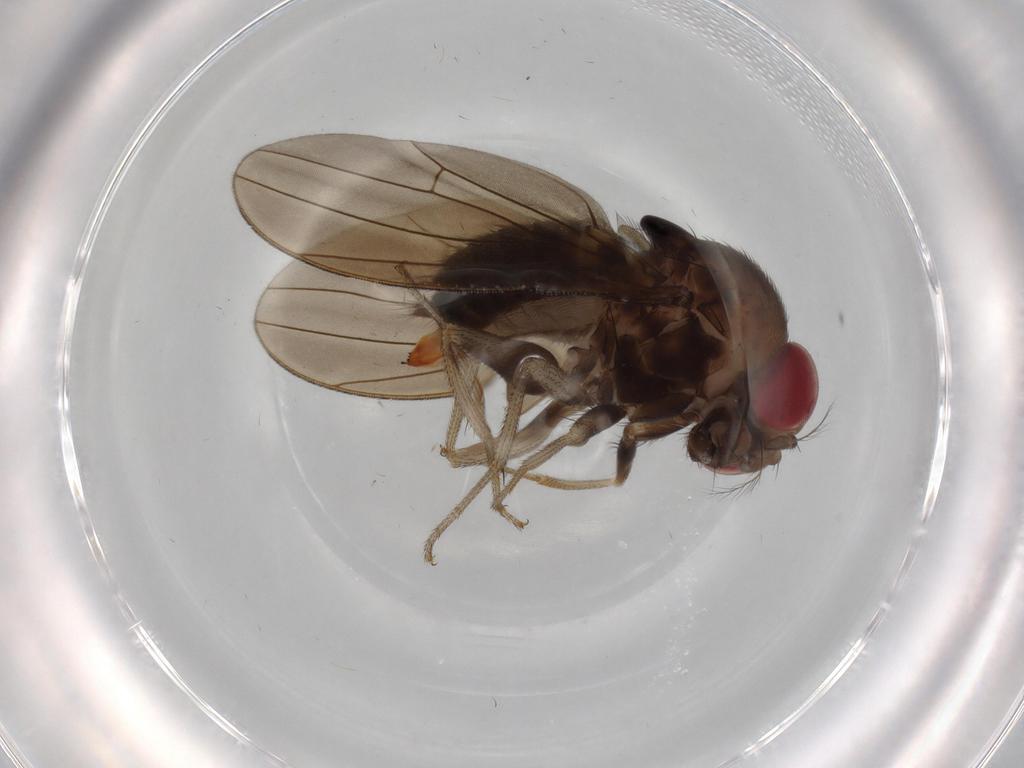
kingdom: Animalia
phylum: Arthropoda
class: Insecta
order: Diptera
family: Drosophilidae
